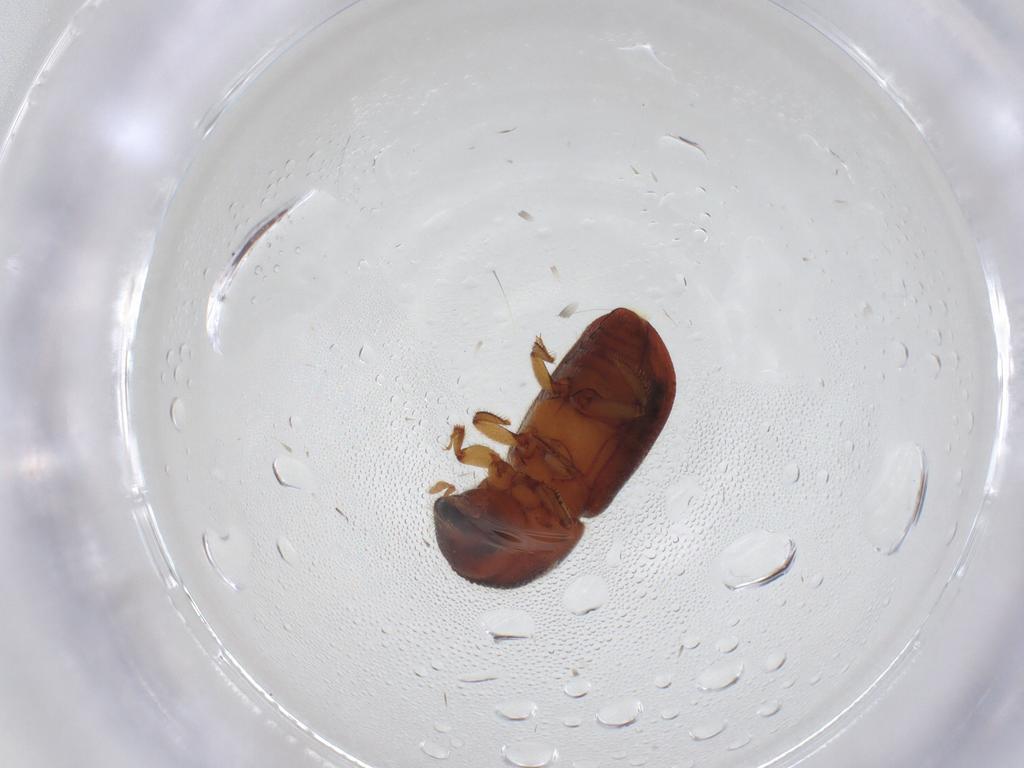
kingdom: Animalia
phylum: Arthropoda
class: Insecta
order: Coleoptera
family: Curculionidae
